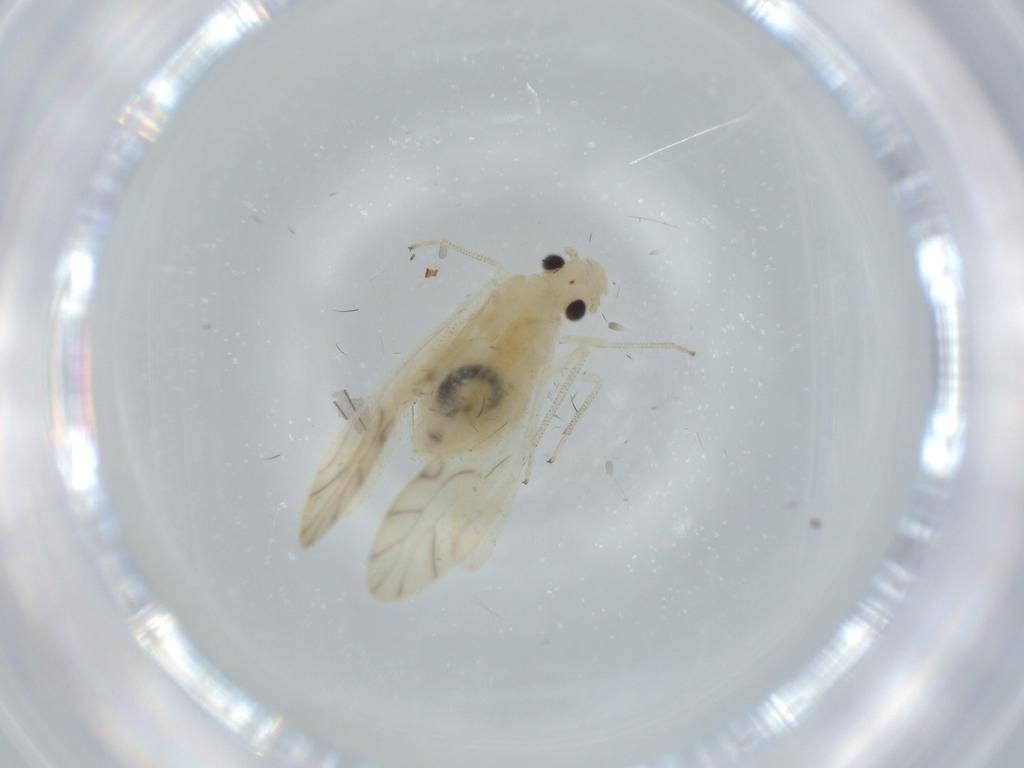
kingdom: Animalia
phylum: Arthropoda
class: Insecta
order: Psocodea
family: Caeciliusidae
